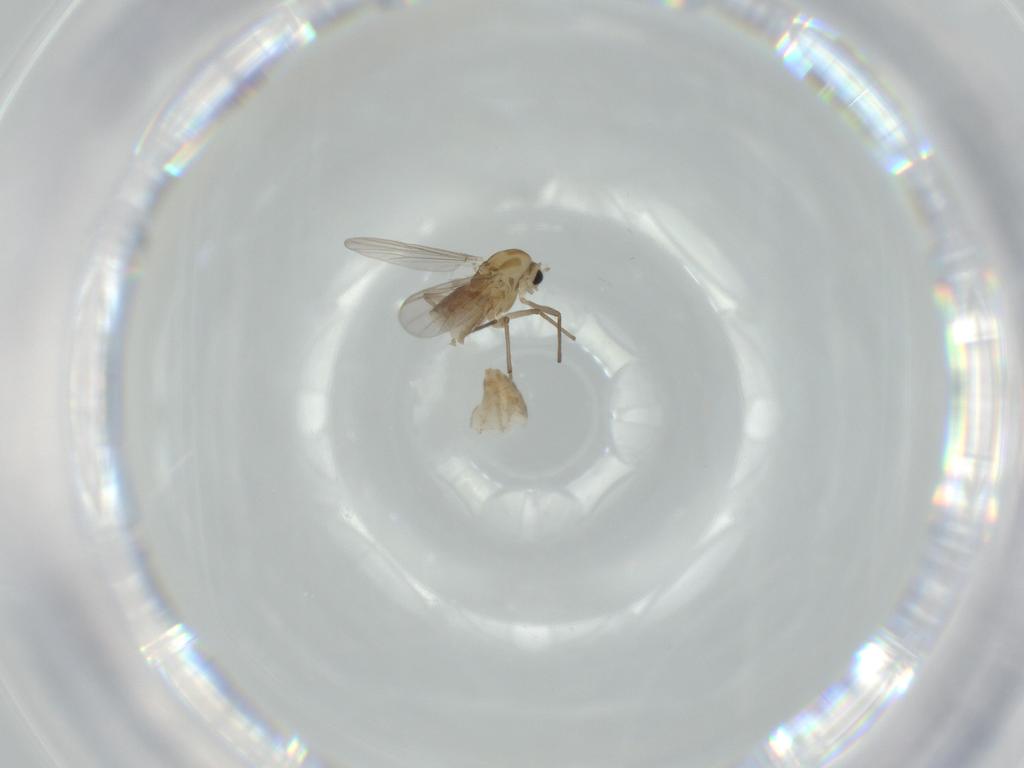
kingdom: Animalia
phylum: Arthropoda
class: Insecta
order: Diptera
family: Chironomidae
